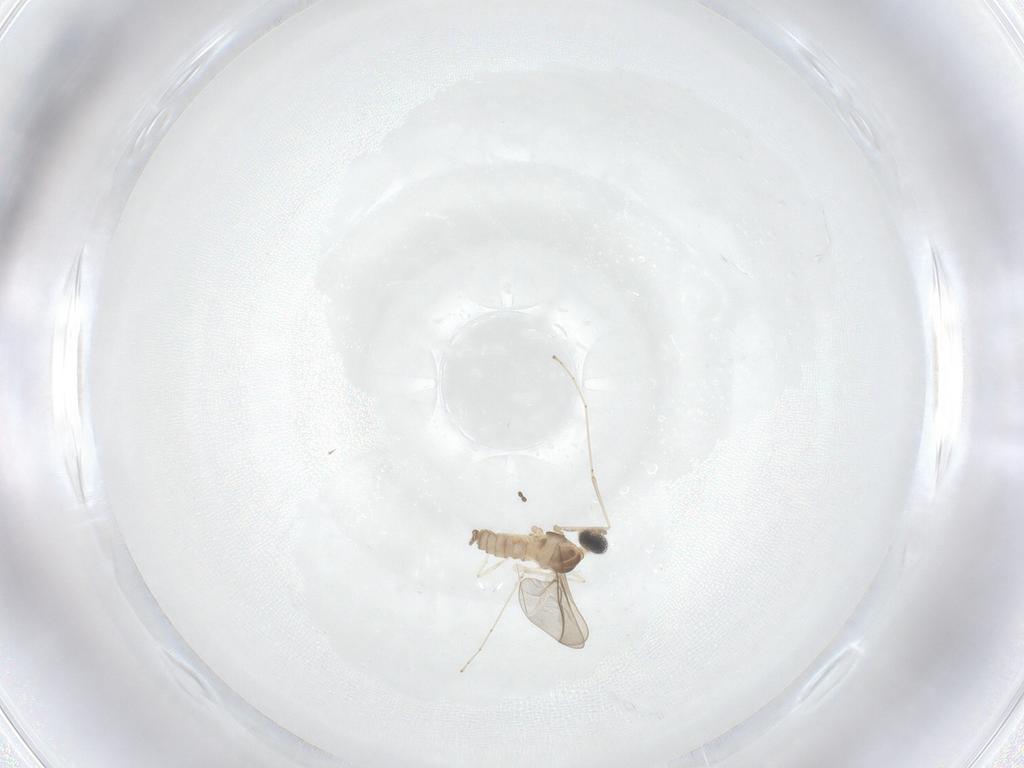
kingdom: Animalia
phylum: Arthropoda
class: Insecta
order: Diptera
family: Cecidomyiidae
